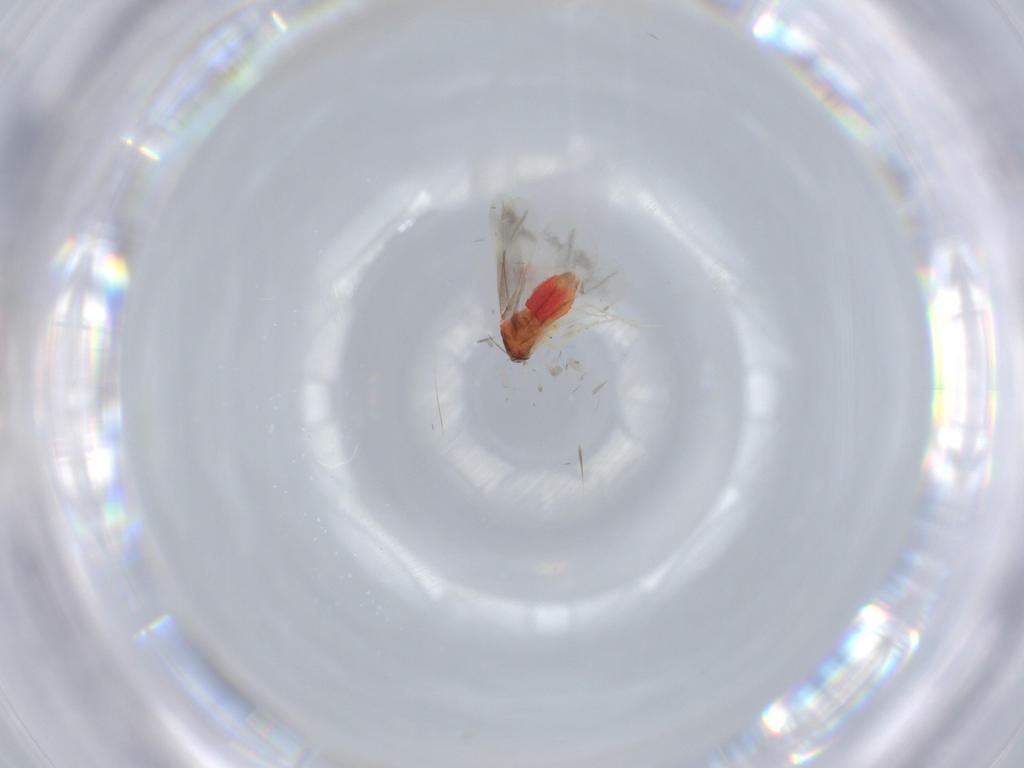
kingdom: Animalia
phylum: Arthropoda
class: Insecta
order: Hemiptera
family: Aleyrodidae
